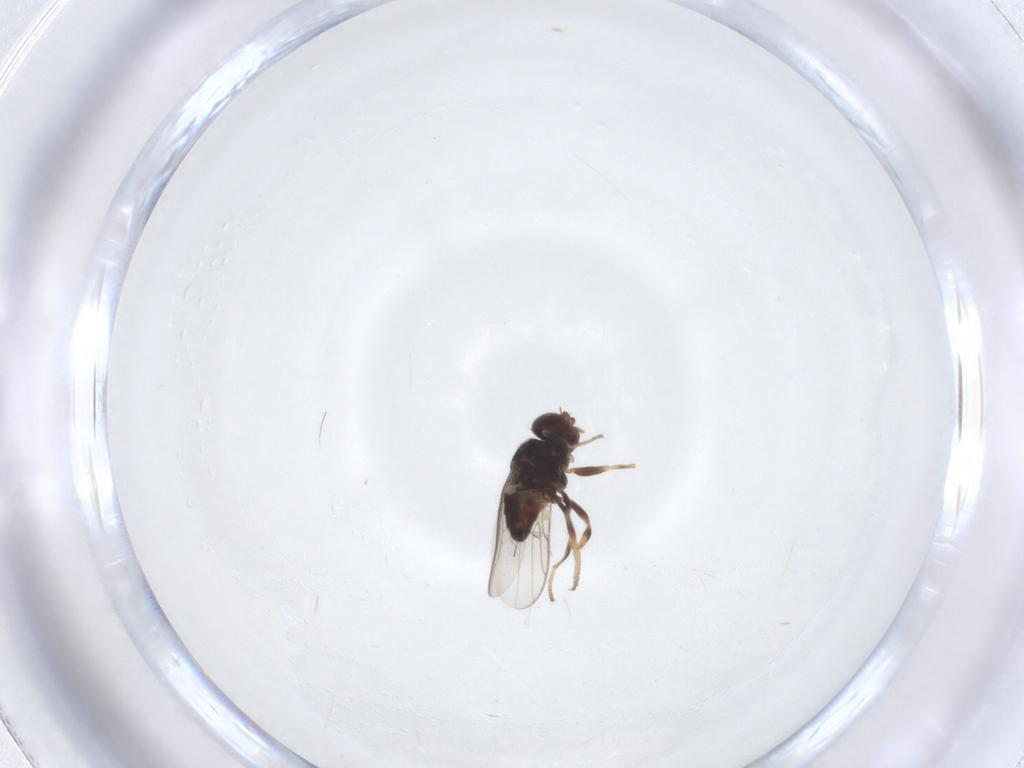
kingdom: Animalia
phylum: Arthropoda
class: Insecta
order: Diptera
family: Chloropidae
